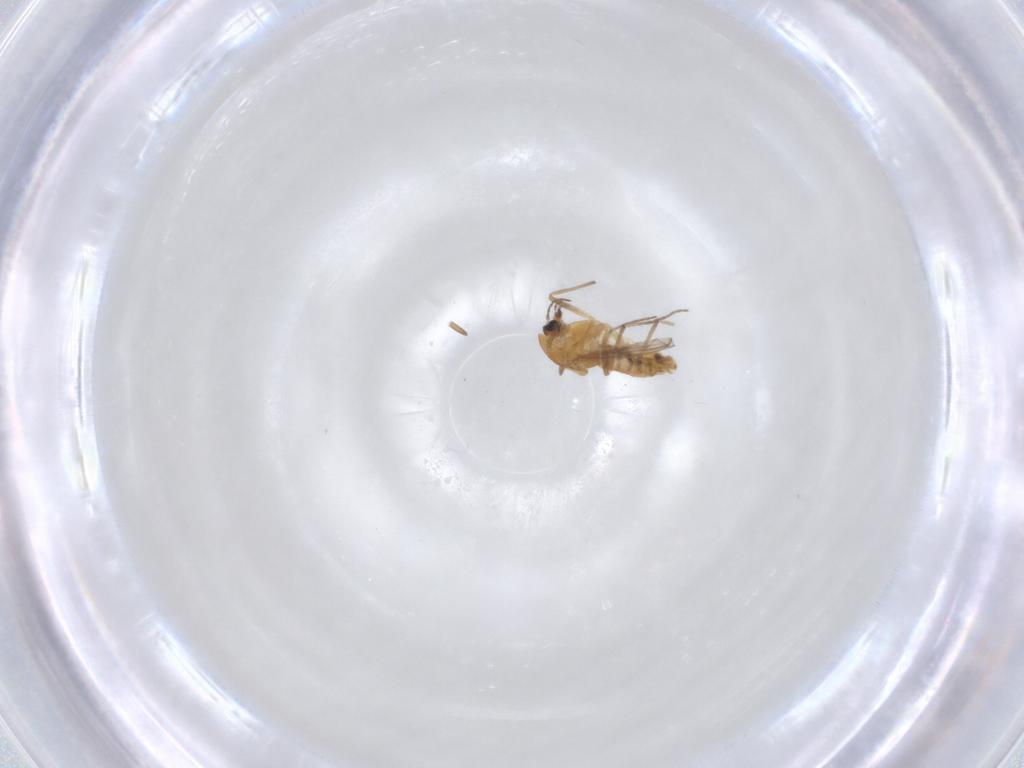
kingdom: Animalia
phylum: Arthropoda
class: Insecta
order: Diptera
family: Chironomidae
